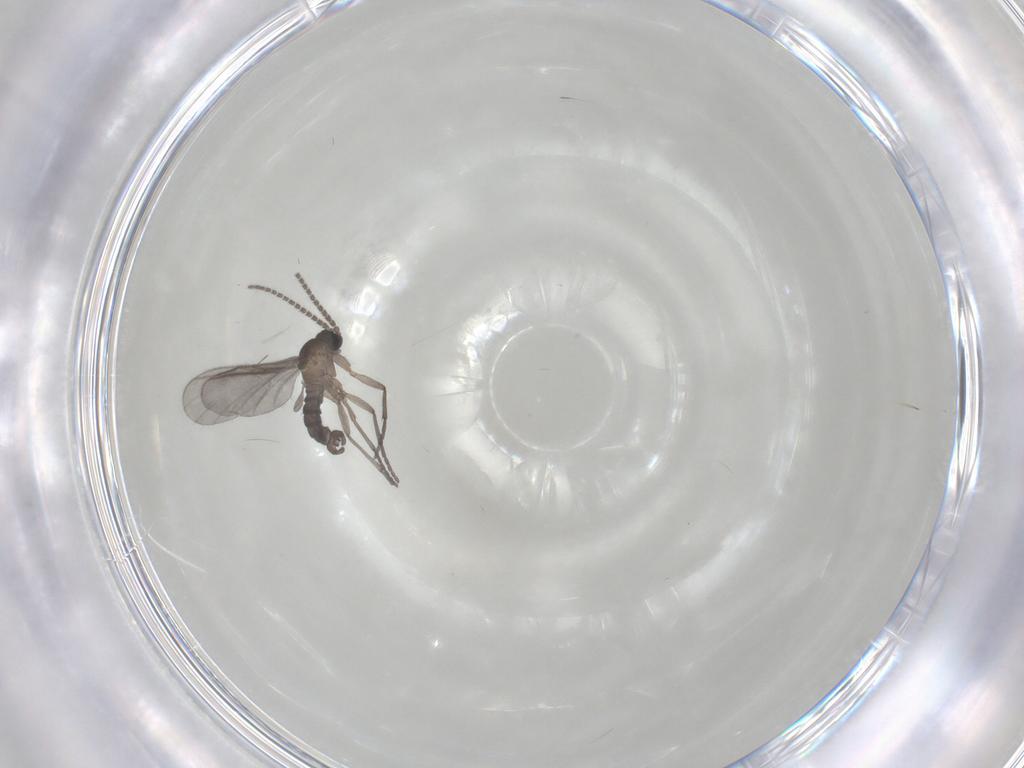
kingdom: Animalia
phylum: Arthropoda
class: Insecta
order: Diptera
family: Sciaridae
